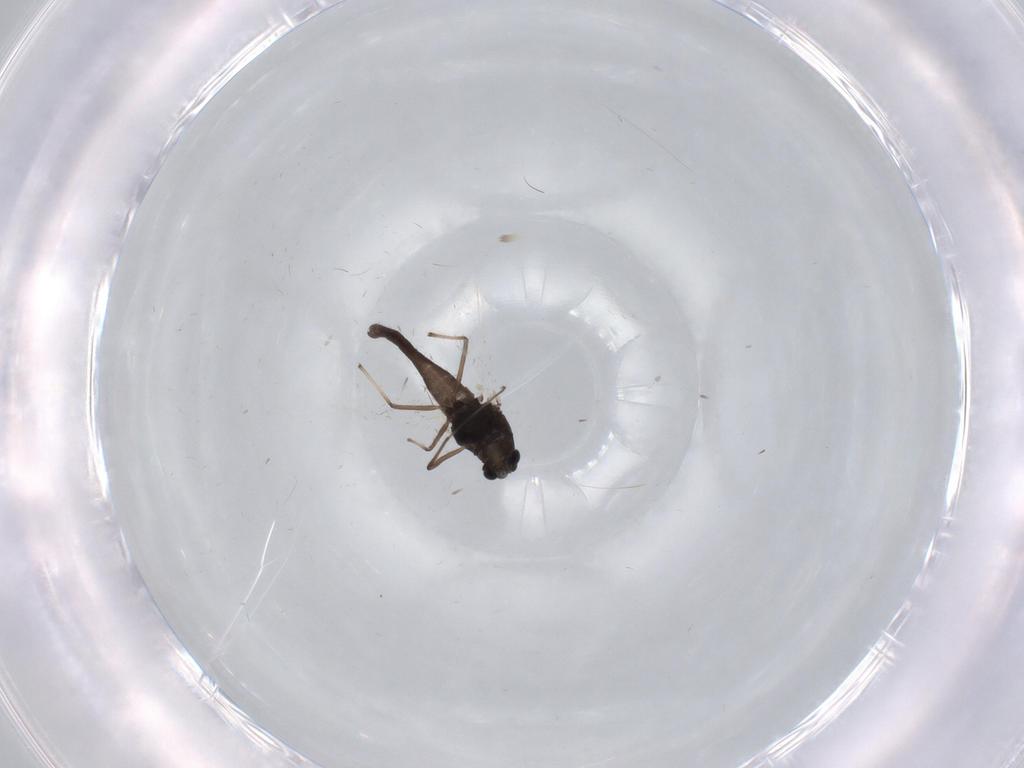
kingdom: Animalia
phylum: Arthropoda
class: Insecta
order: Diptera
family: Chironomidae
